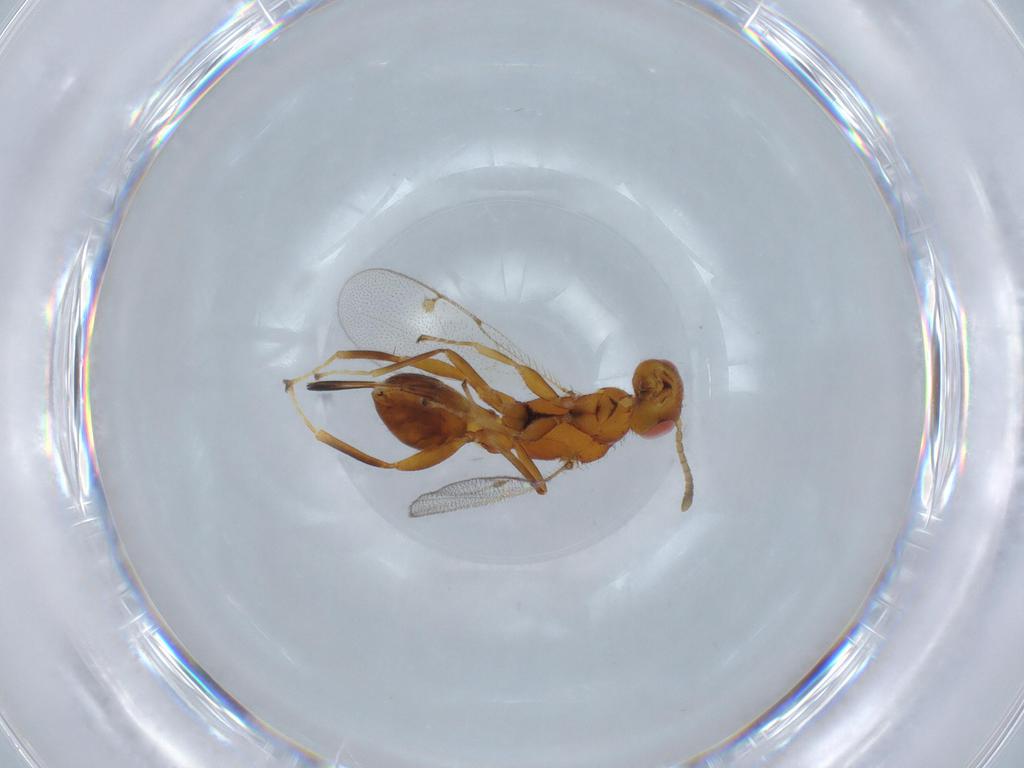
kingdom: Animalia
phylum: Arthropoda
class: Insecta
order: Hymenoptera
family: Megastigmidae
